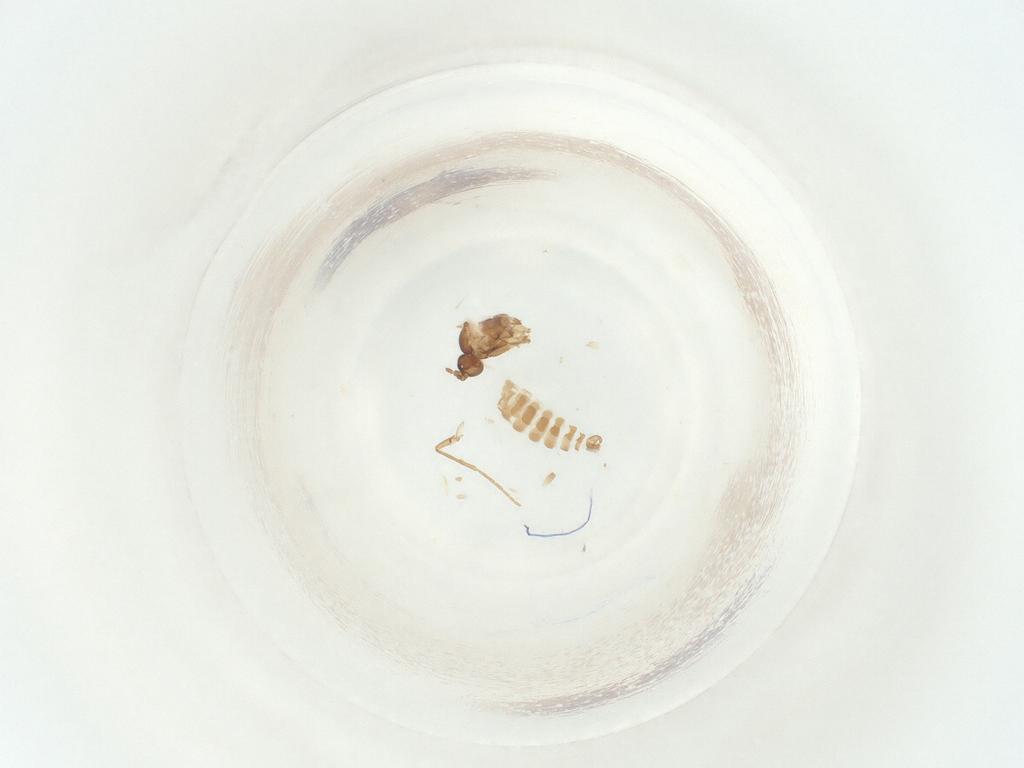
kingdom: Animalia
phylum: Arthropoda
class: Insecta
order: Diptera
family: Sciaridae
